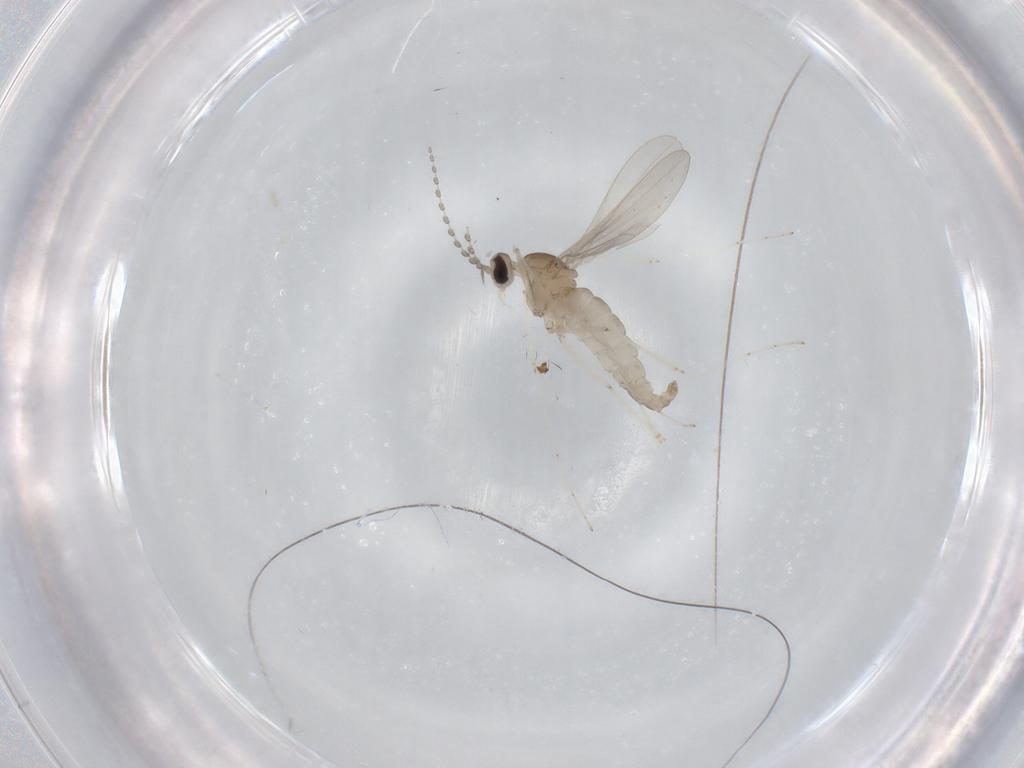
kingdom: Animalia
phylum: Arthropoda
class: Insecta
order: Diptera
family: Cecidomyiidae
